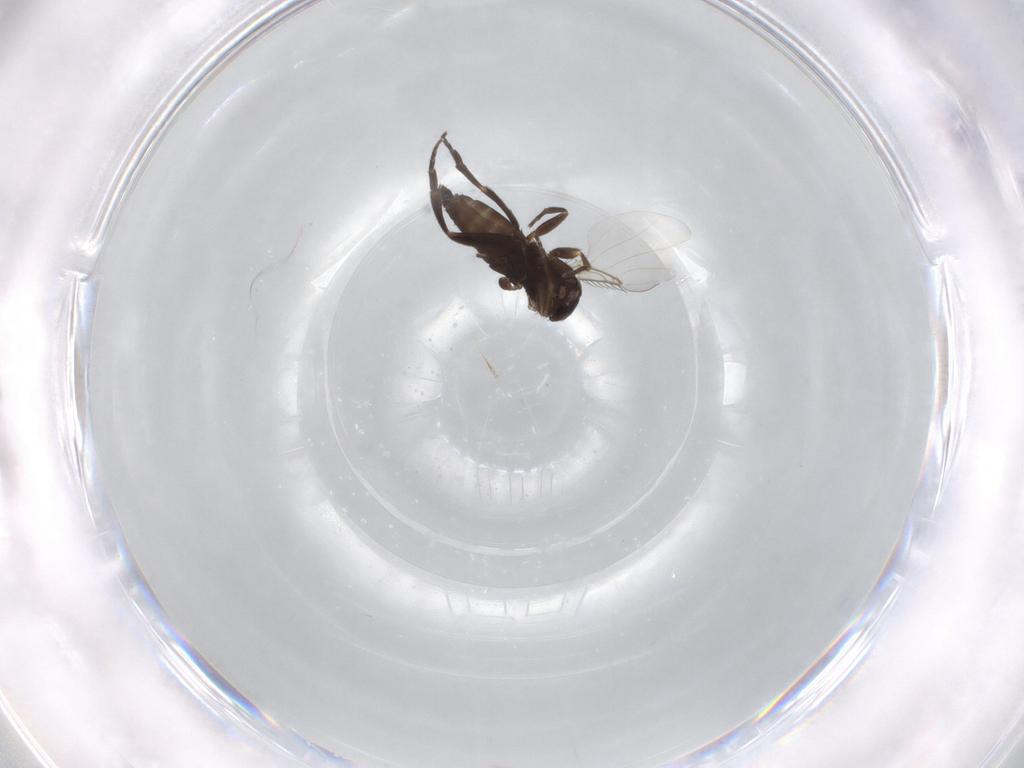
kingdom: Animalia
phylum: Arthropoda
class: Insecta
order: Diptera
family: Phoridae
